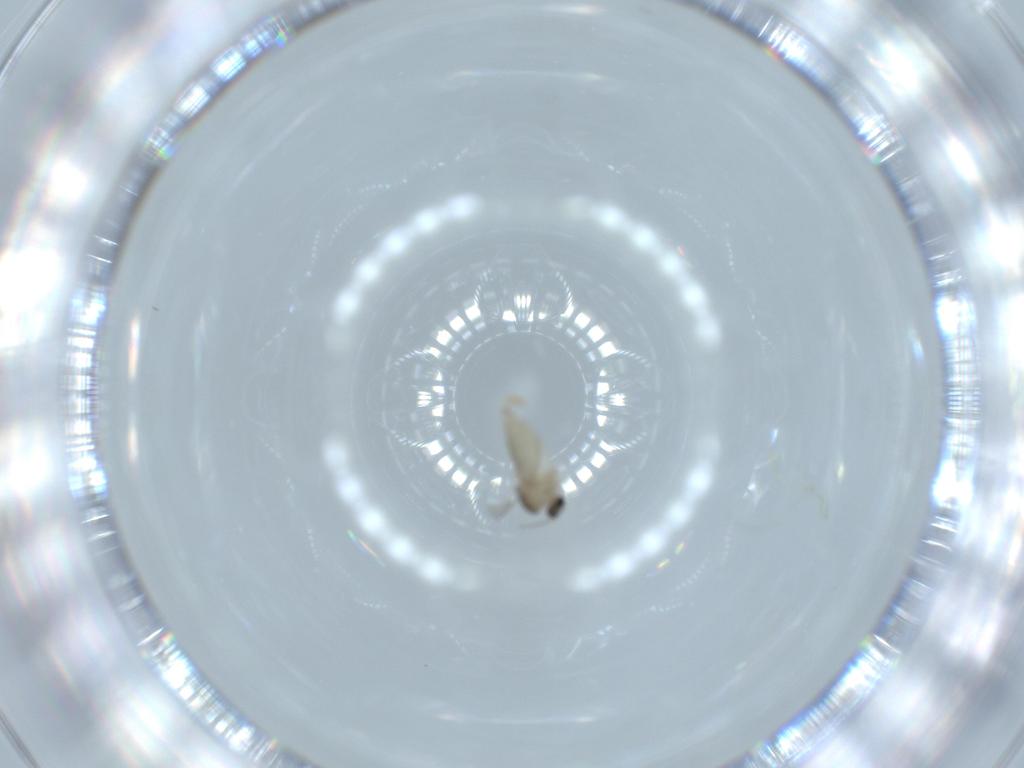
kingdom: Animalia
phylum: Arthropoda
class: Insecta
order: Diptera
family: Cecidomyiidae
